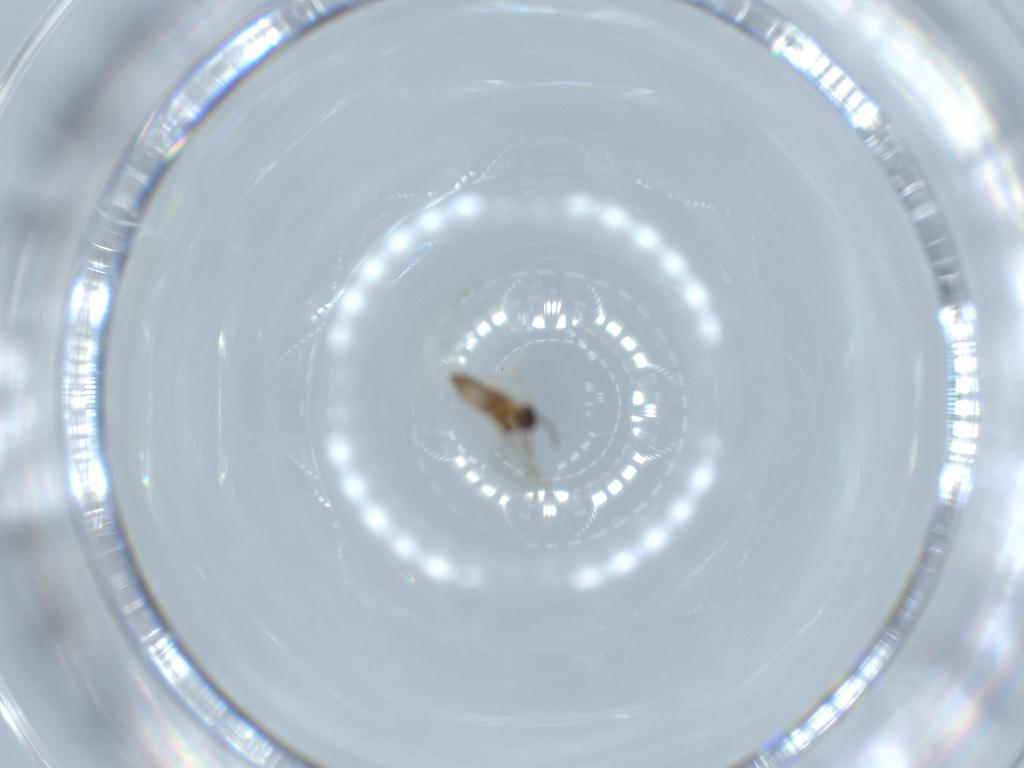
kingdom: Animalia
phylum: Arthropoda
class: Insecta
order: Diptera
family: Cecidomyiidae
